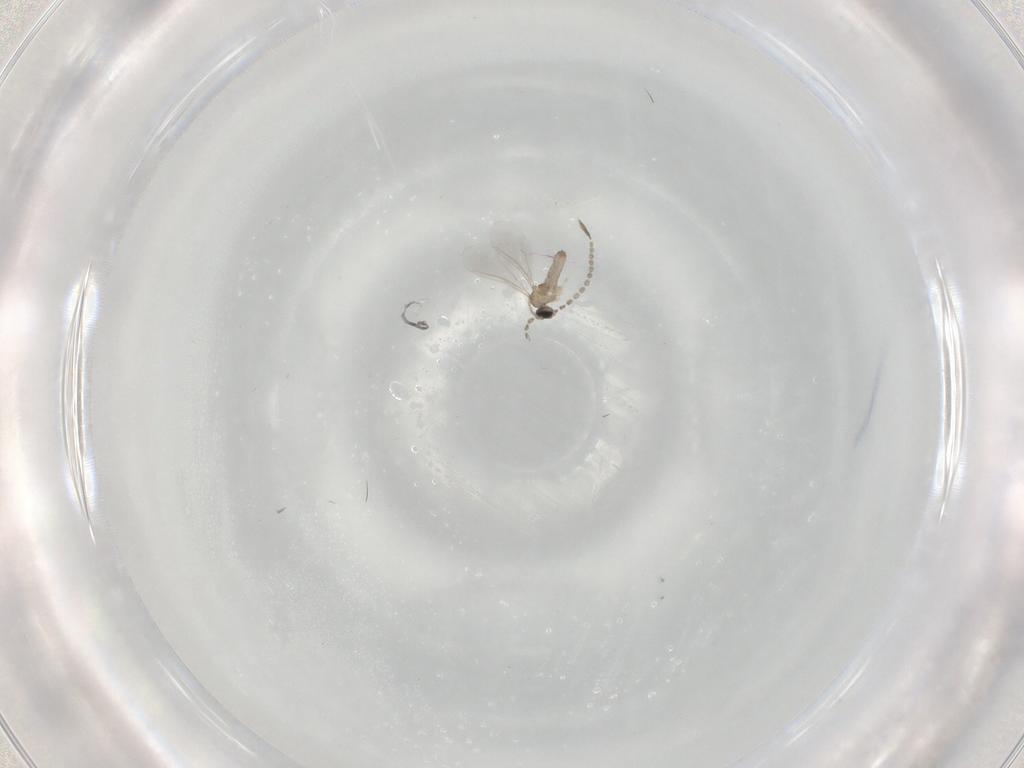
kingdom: Animalia
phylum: Arthropoda
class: Insecta
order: Diptera
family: Cecidomyiidae
